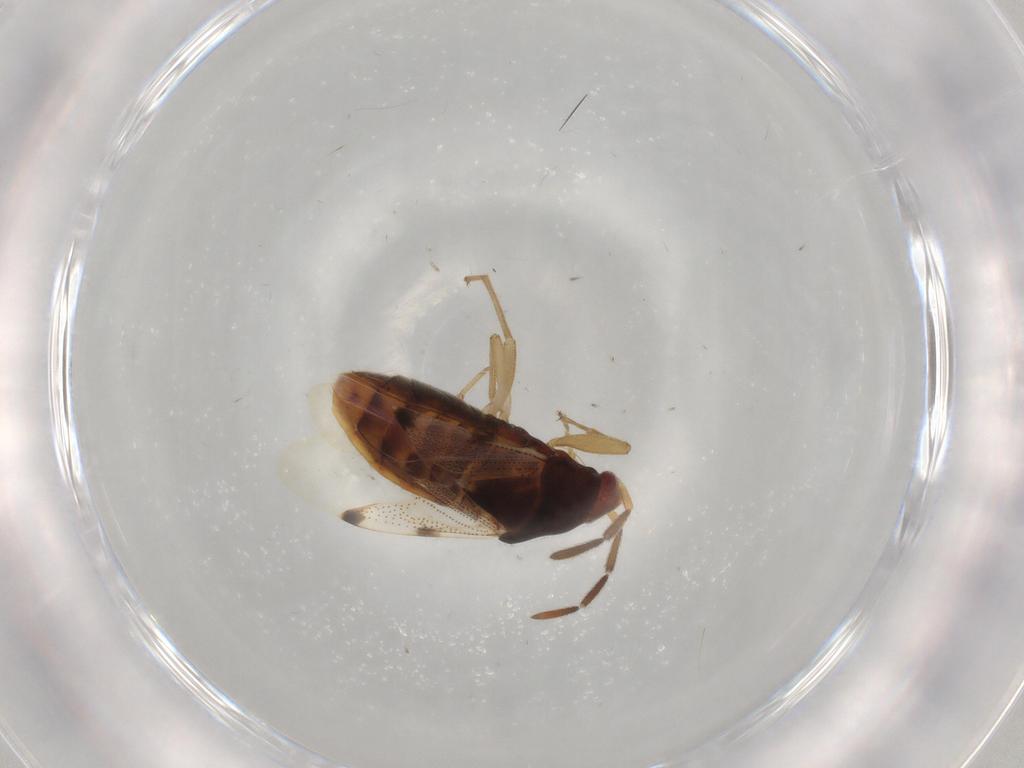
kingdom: Animalia
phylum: Arthropoda
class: Insecta
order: Hemiptera
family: Rhyparochromidae
